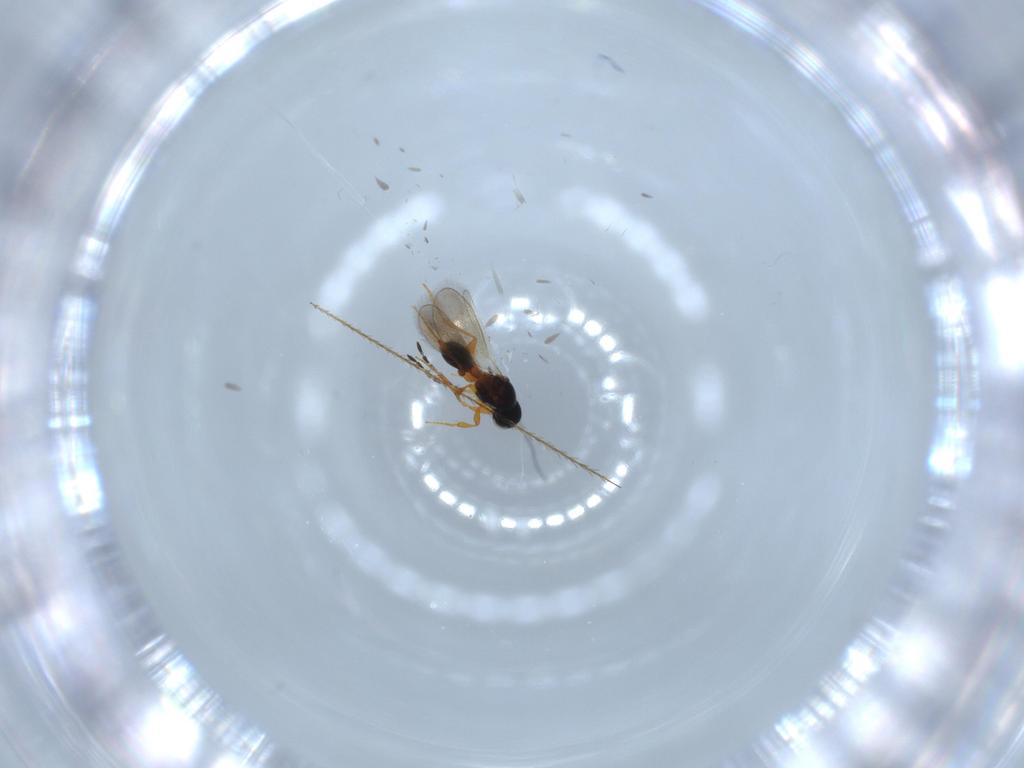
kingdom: Animalia
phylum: Arthropoda
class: Insecta
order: Hymenoptera
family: Platygastridae
